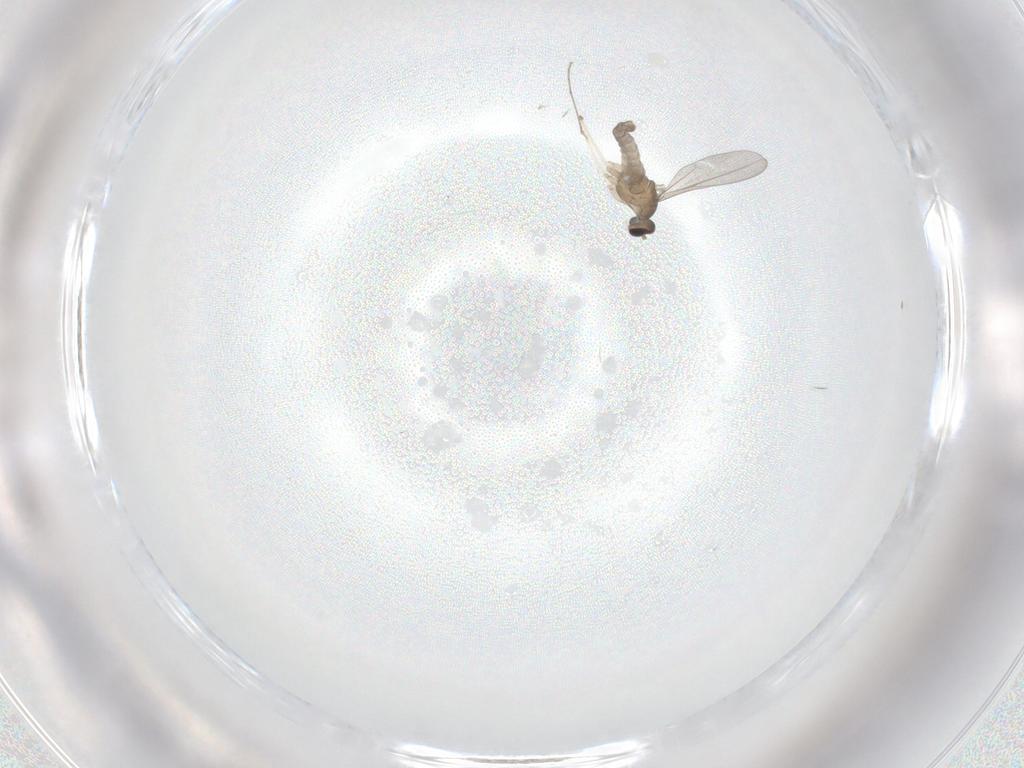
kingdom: Animalia
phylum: Arthropoda
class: Insecta
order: Diptera
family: Cecidomyiidae
